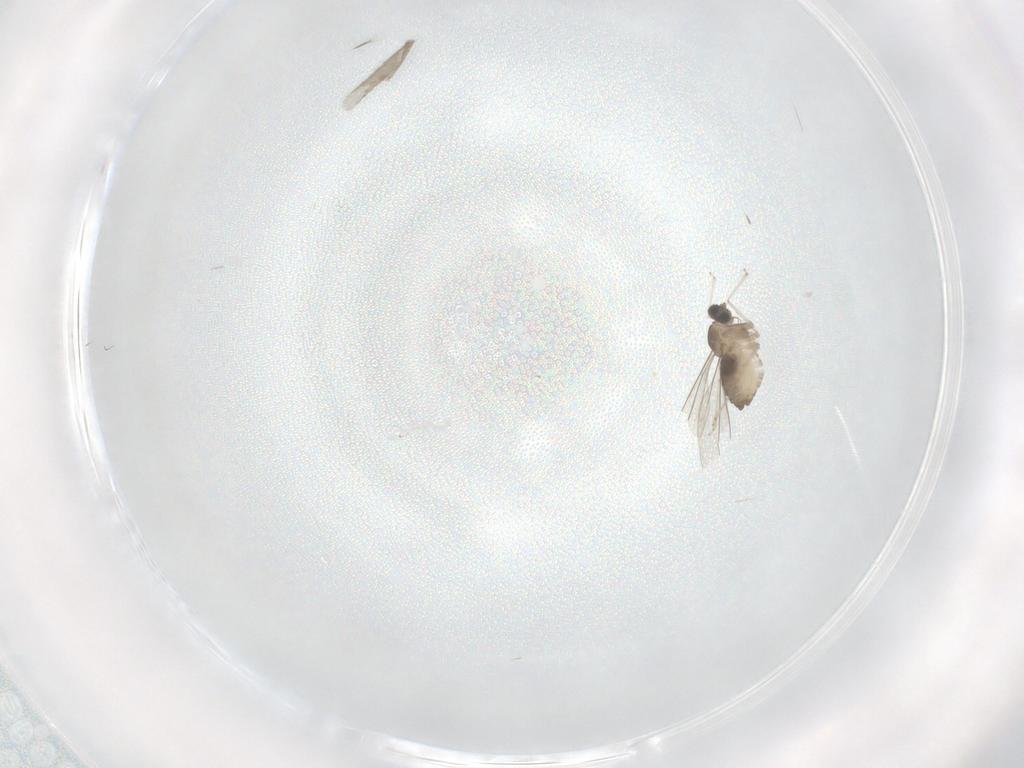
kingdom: Animalia
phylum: Arthropoda
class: Insecta
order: Diptera
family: Cecidomyiidae
